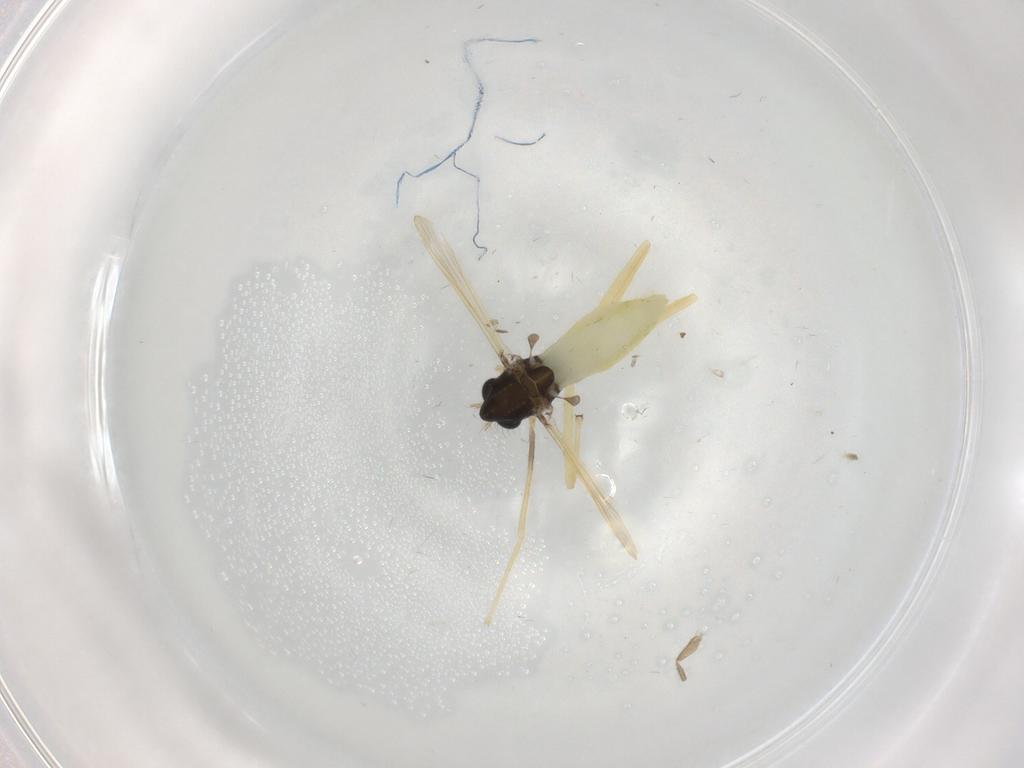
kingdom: Animalia
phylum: Arthropoda
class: Insecta
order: Diptera
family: Chironomidae
